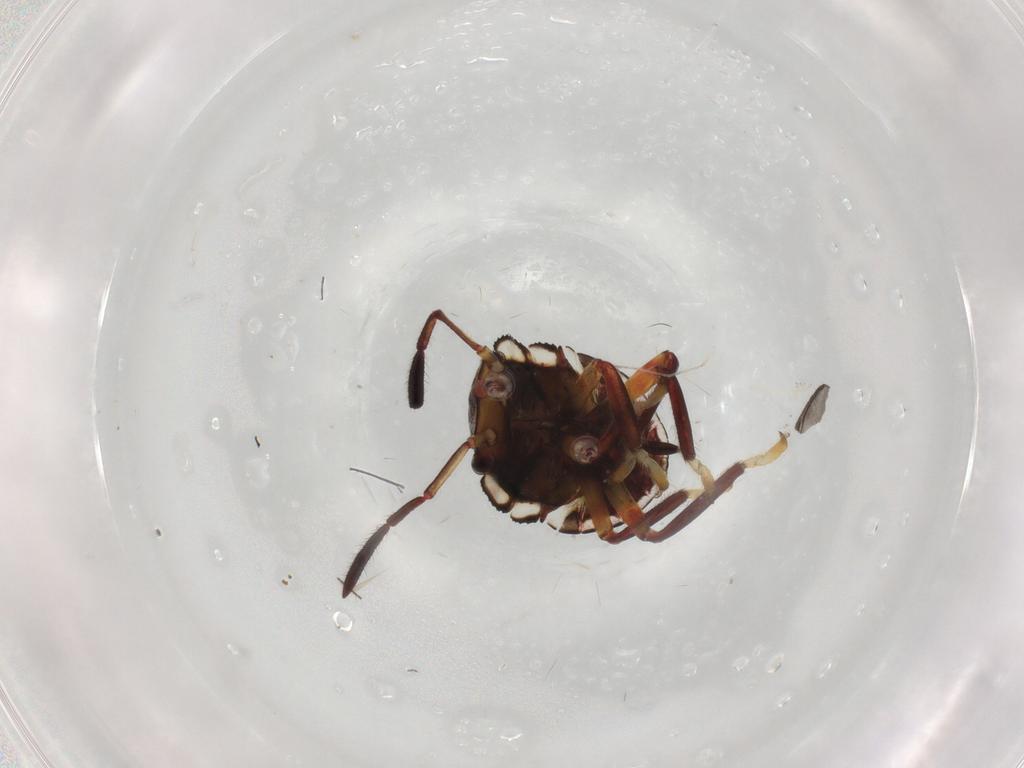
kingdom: Animalia
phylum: Arthropoda
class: Insecta
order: Hemiptera
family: Pentatomidae
